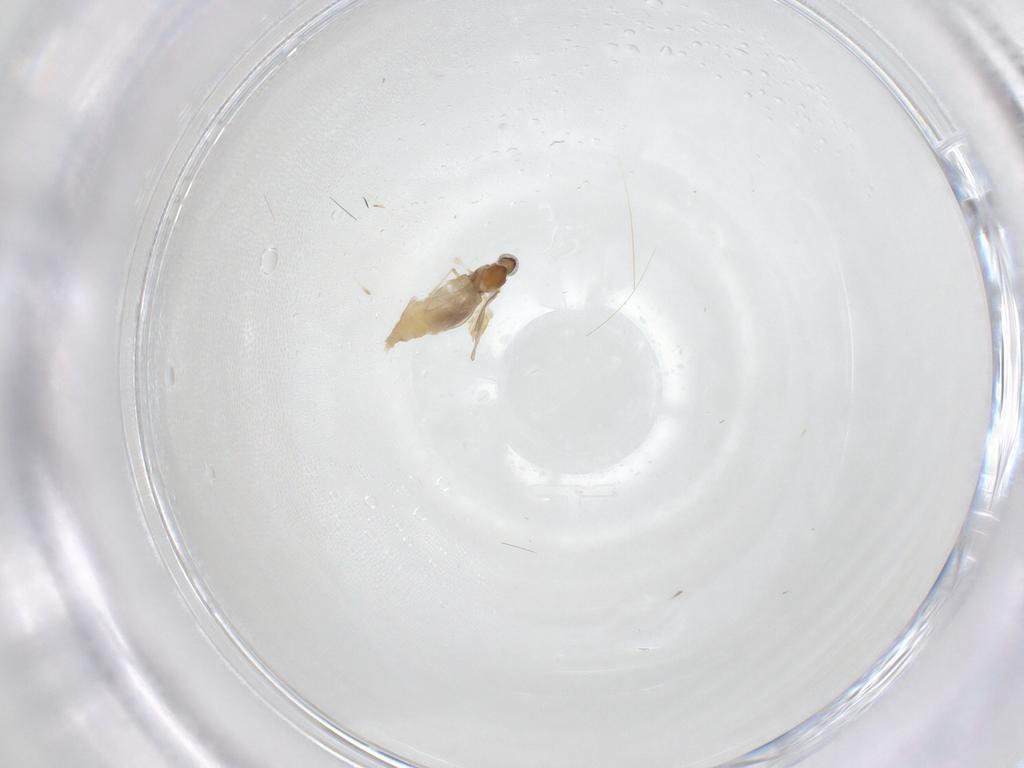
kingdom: Animalia
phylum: Arthropoda
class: Insecta
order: Diptera
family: Cecidomyiidae
